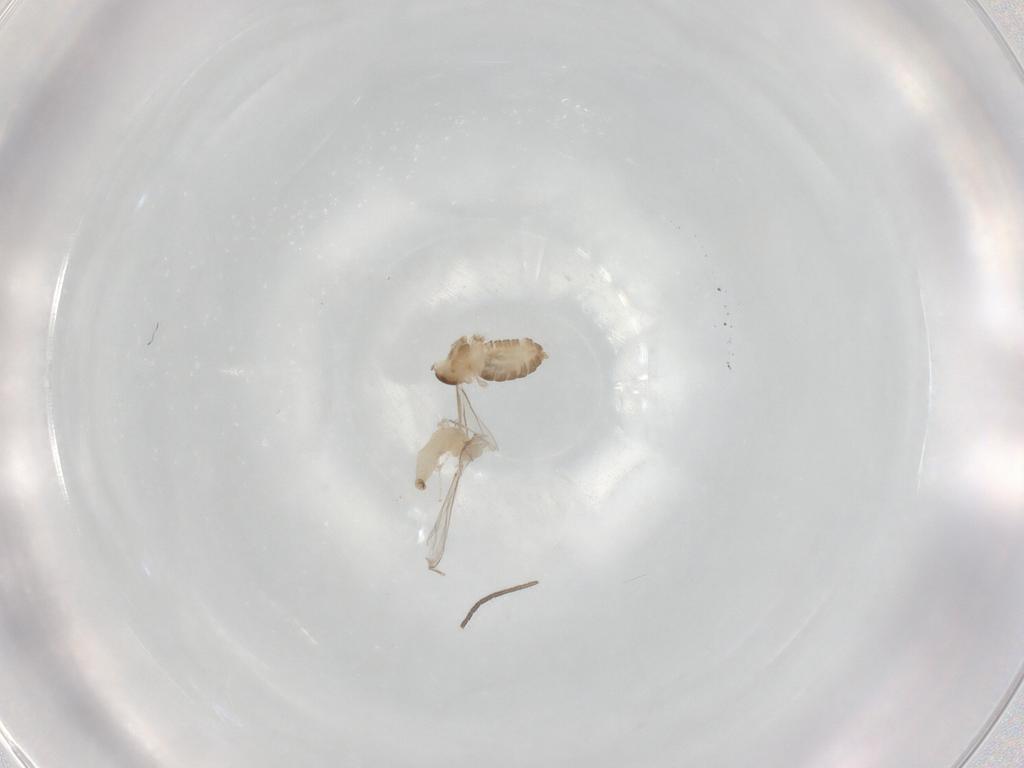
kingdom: Animalia
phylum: Arthropoda
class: Insecta
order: Diptera
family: Cecidomyiidae
